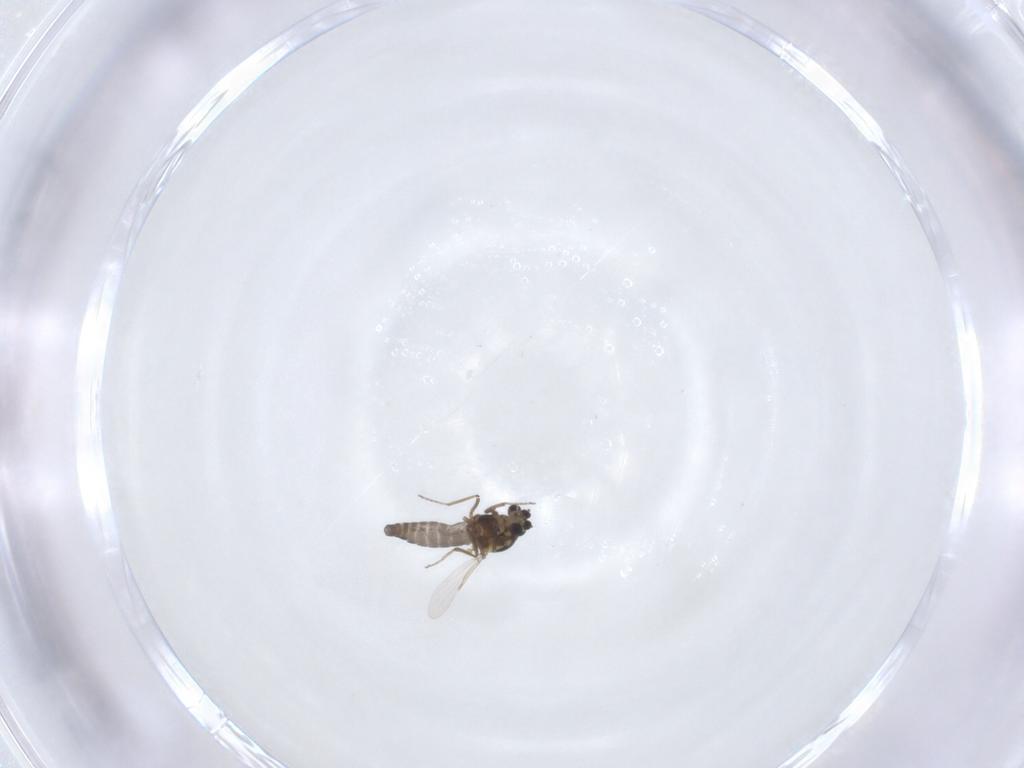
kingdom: Animalia
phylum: Arthropoda
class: Insecta
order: Diptera
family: Ceratopogonidae
